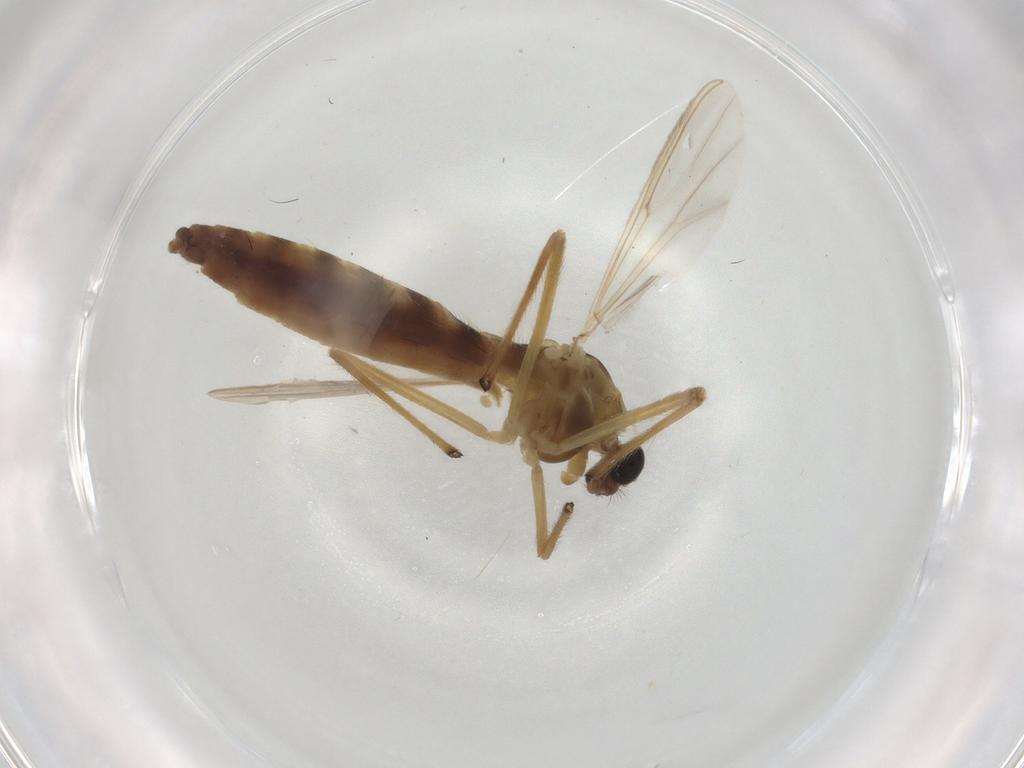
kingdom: Animalia
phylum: Arthropoda
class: Insecta
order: Diptera
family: Chironomidae
